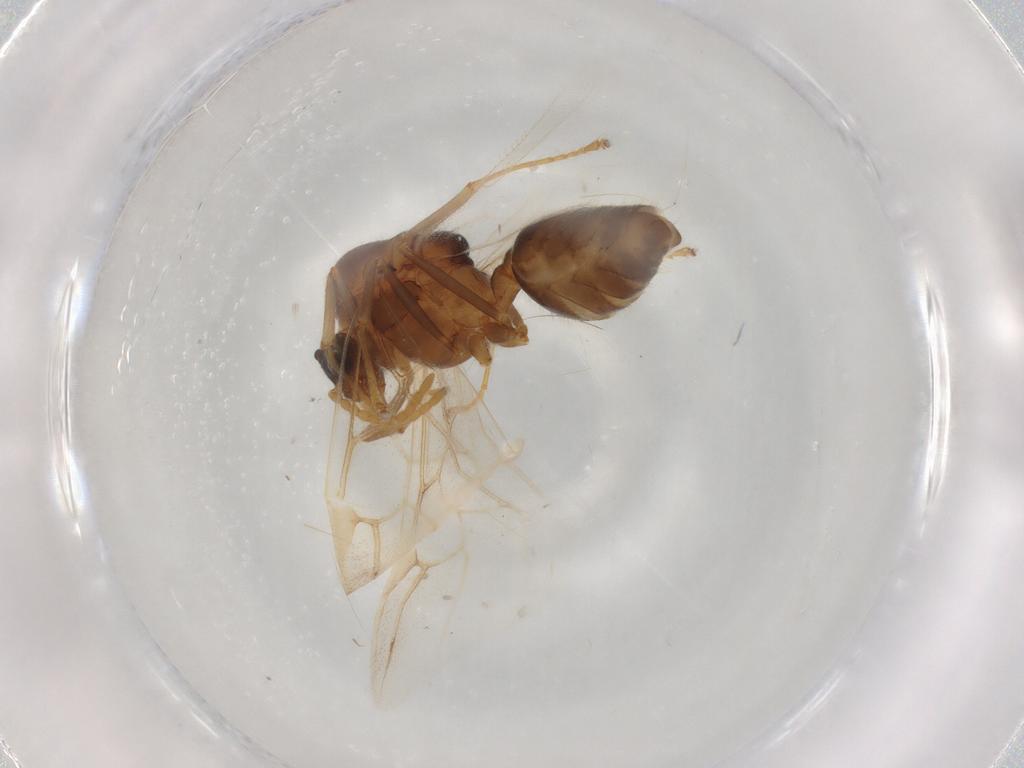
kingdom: Animalia
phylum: Arthropoda
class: Insecta
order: Hymenoptera
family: Formicidae
